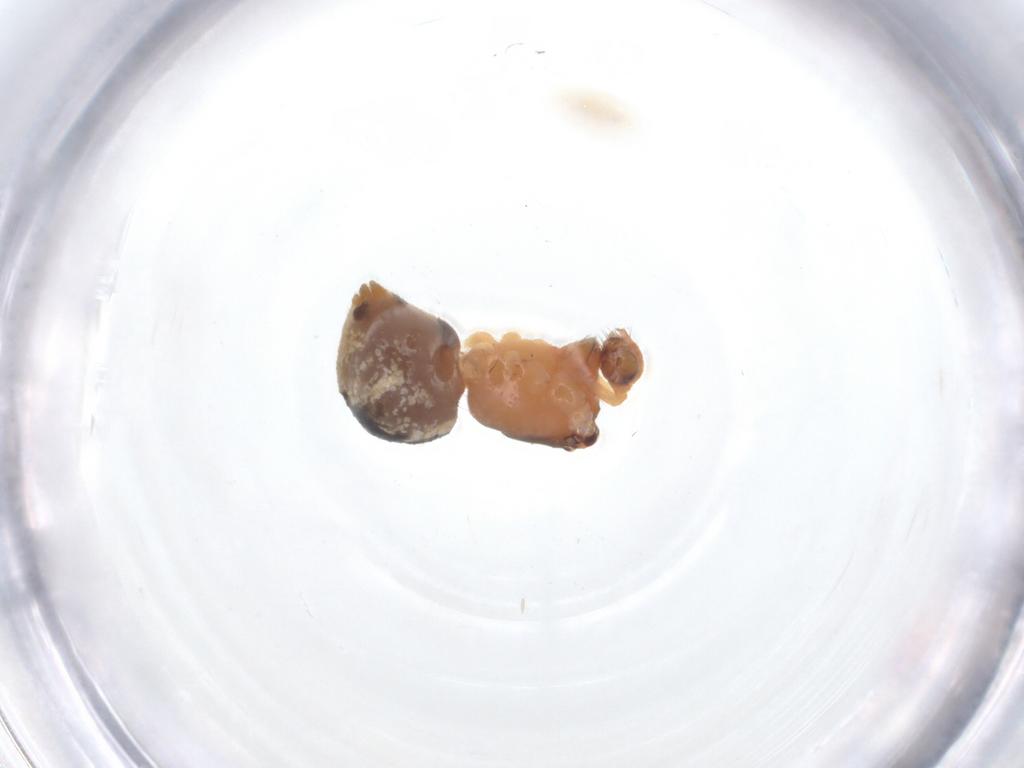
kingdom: Animalia
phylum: Arthropoda
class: Arachnida
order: Araneae
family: Theridiidae
